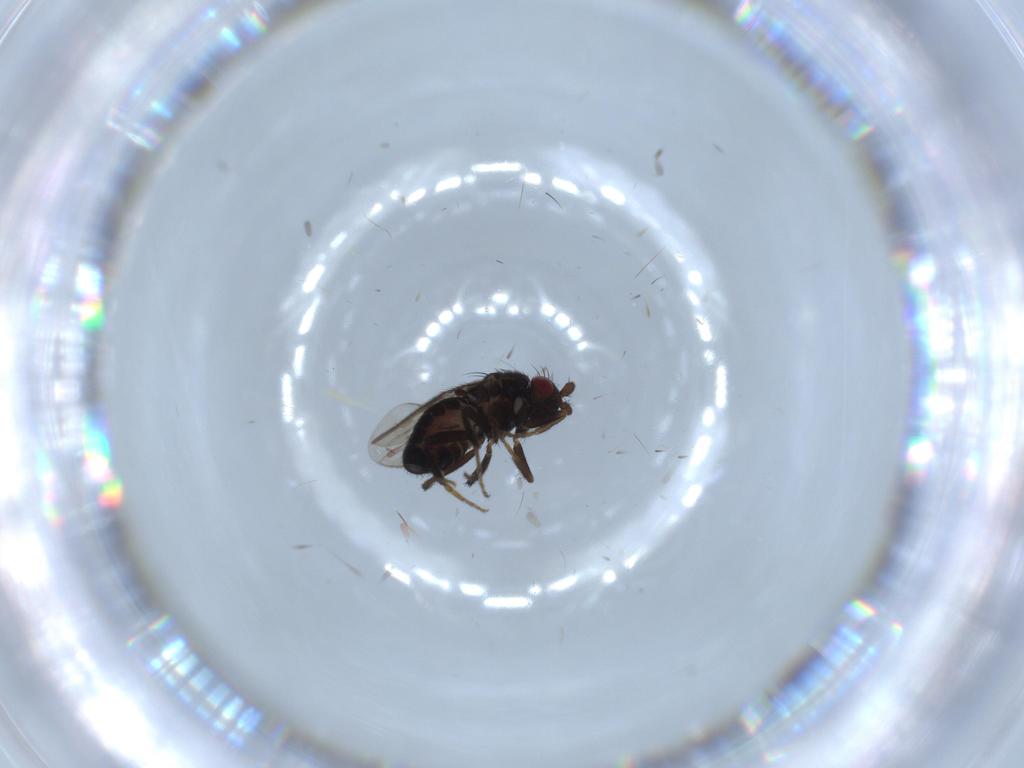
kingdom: Animalia
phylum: Arthropoda
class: Insecta
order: Diptera
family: Sphaeroceridae
